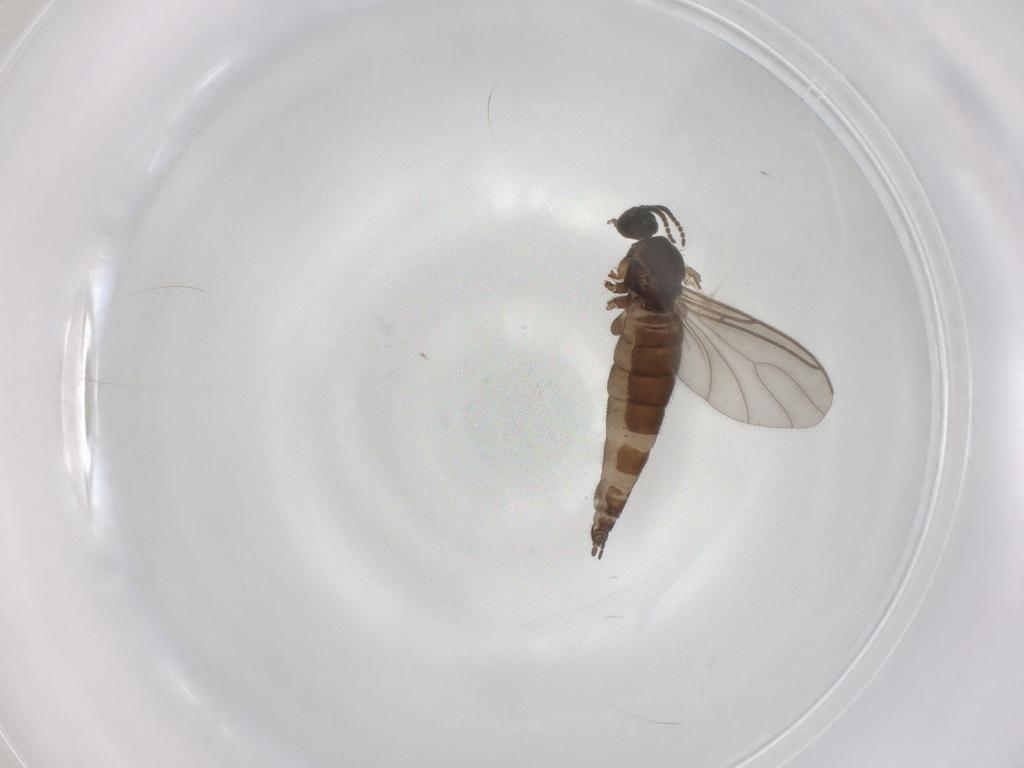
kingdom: Animalia
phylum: Arthropoda
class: Insecta
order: Diptera
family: Sciaridae
